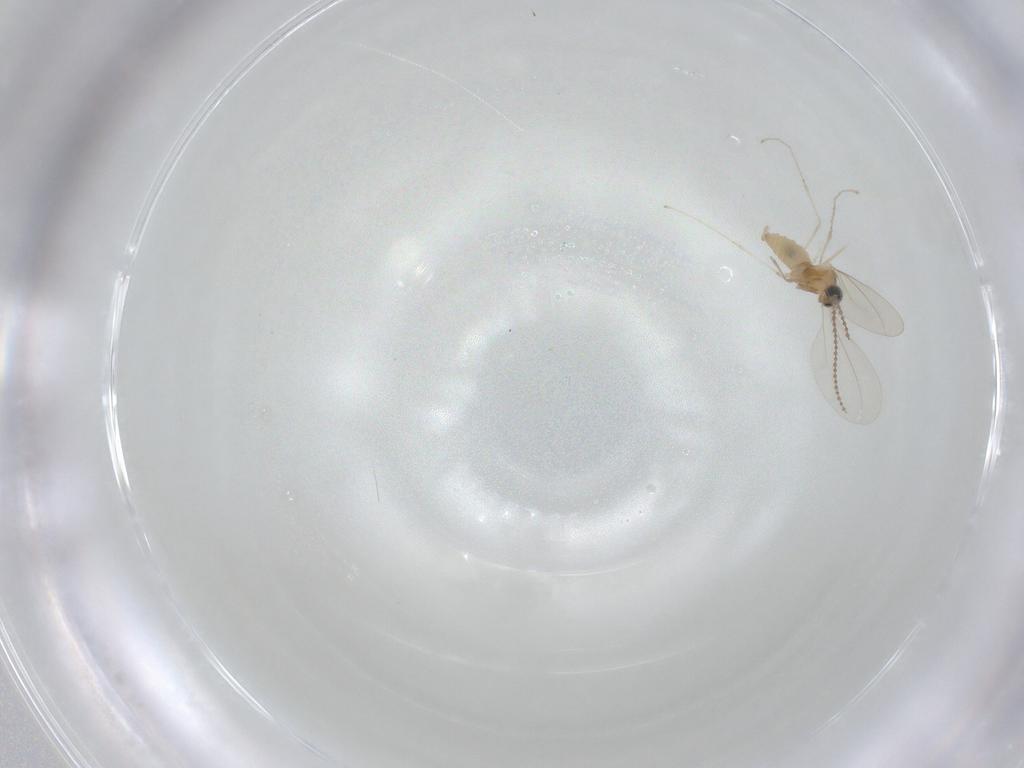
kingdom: Animalia
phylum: Arthropoda
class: Insecta
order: Diptera
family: Cecidomyiidae
